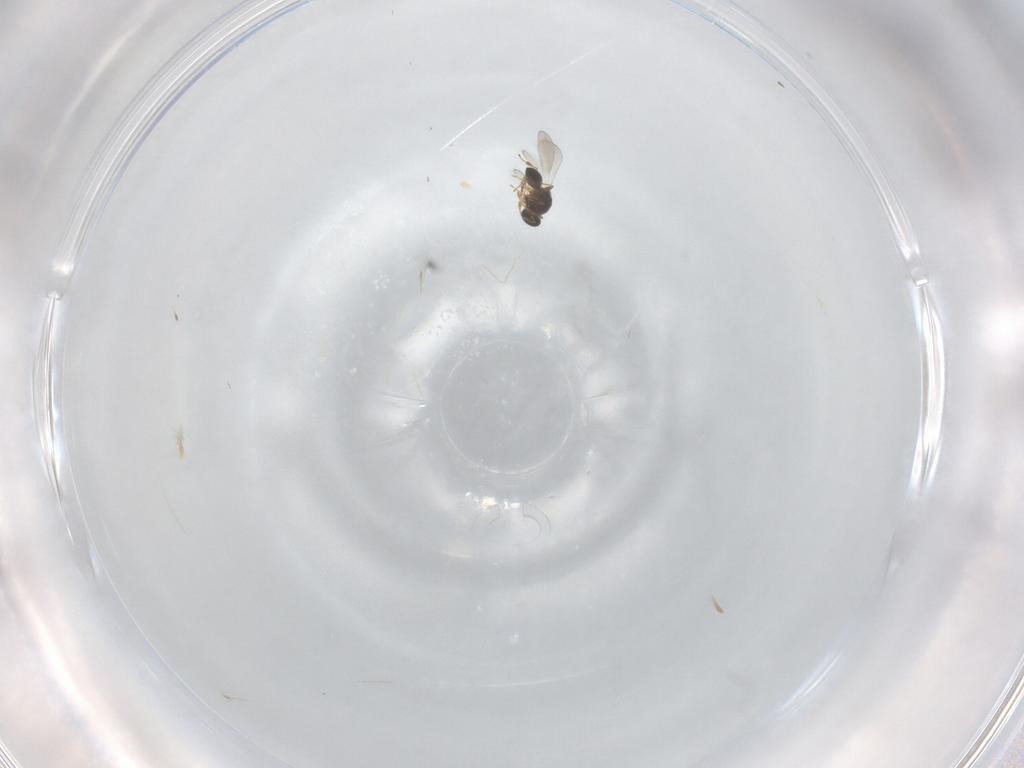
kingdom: Animalia
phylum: Arthropoda
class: Insecta
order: Hymenoptera
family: Platygastridae
